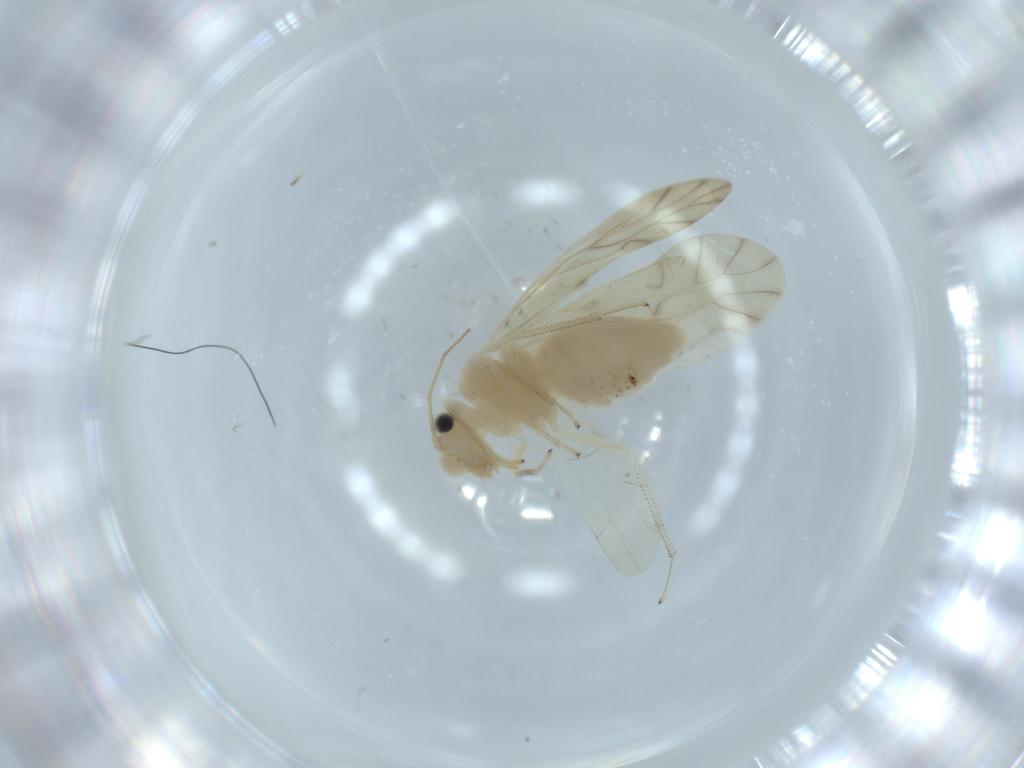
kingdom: Animalia
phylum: Arthropoda
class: Insecta
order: Psocodea
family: Caeciliusidae
